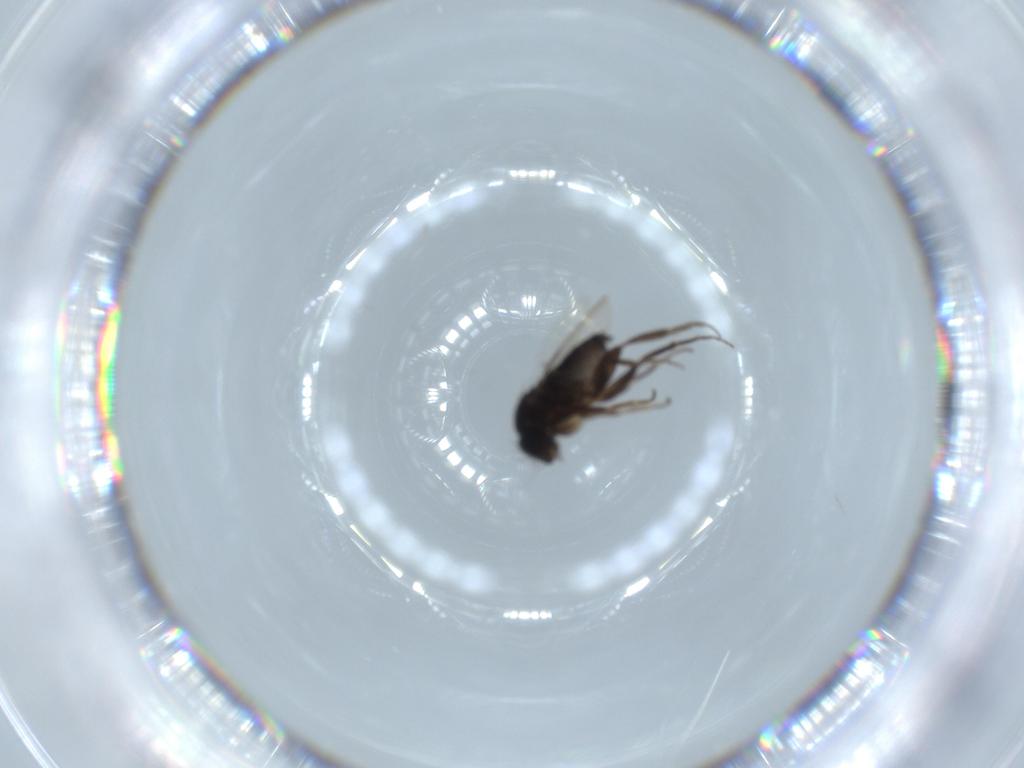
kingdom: Animalia
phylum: Arthropoda
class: Insecta
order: Diptera
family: Phoridae
